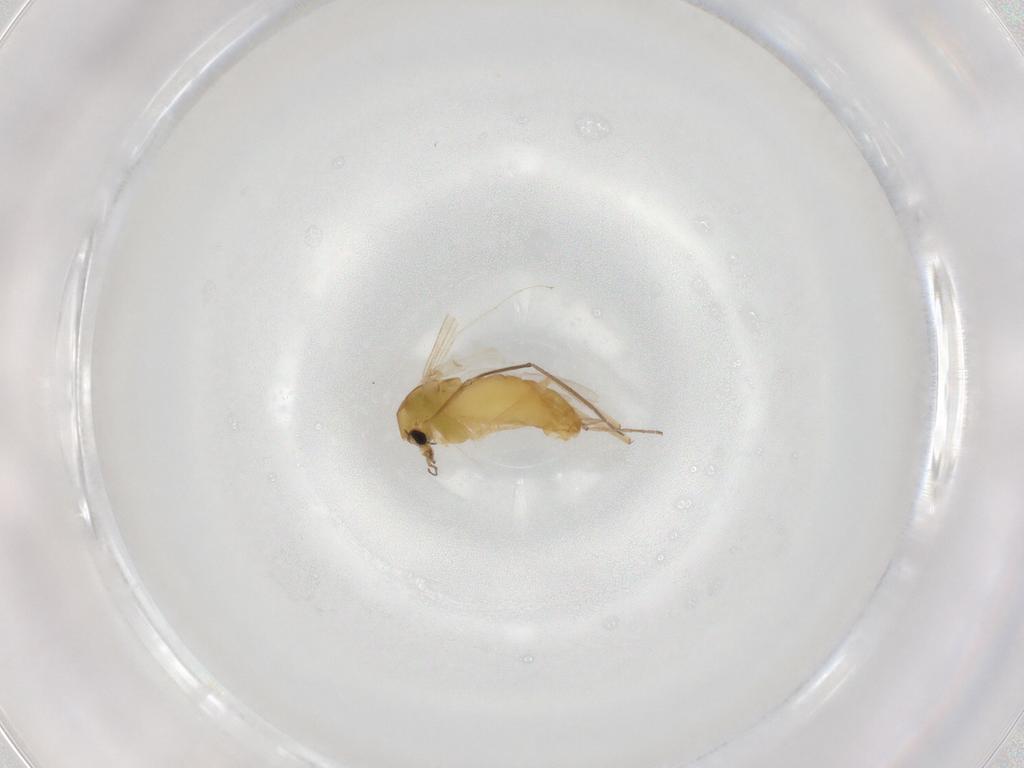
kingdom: Animalia
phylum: Arthropoda
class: Insecta
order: Diptera
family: Chironomidae
